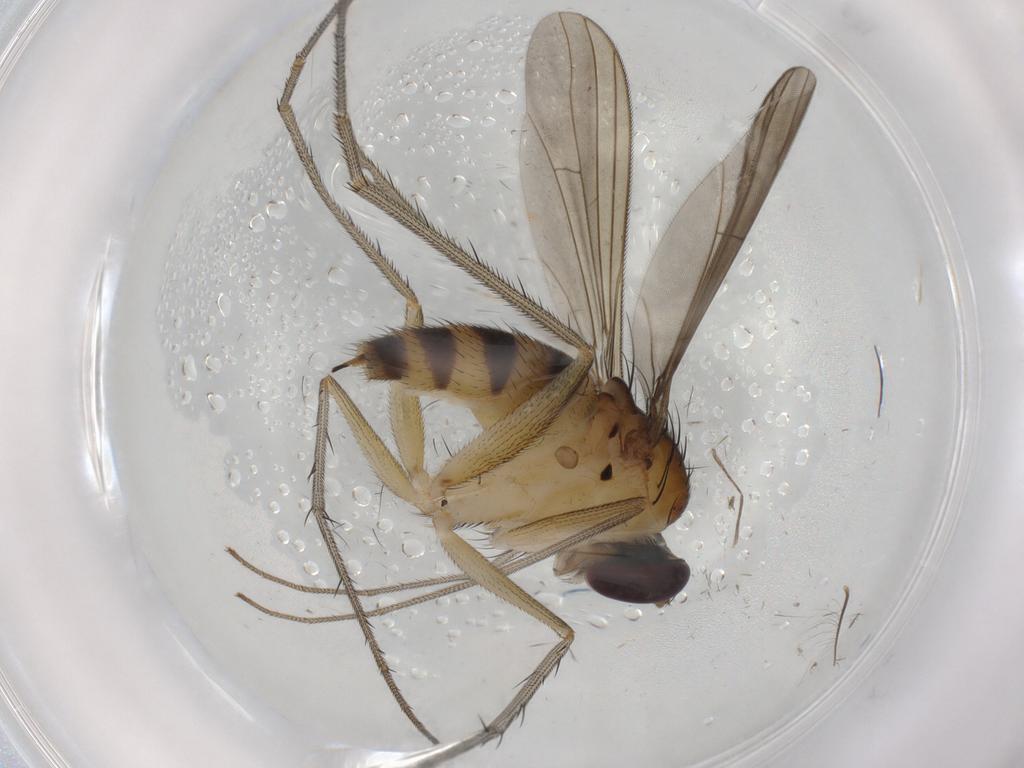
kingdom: Animalia
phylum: Arthropoda
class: Insecta
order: Diptera
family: Cecidomyiidae
